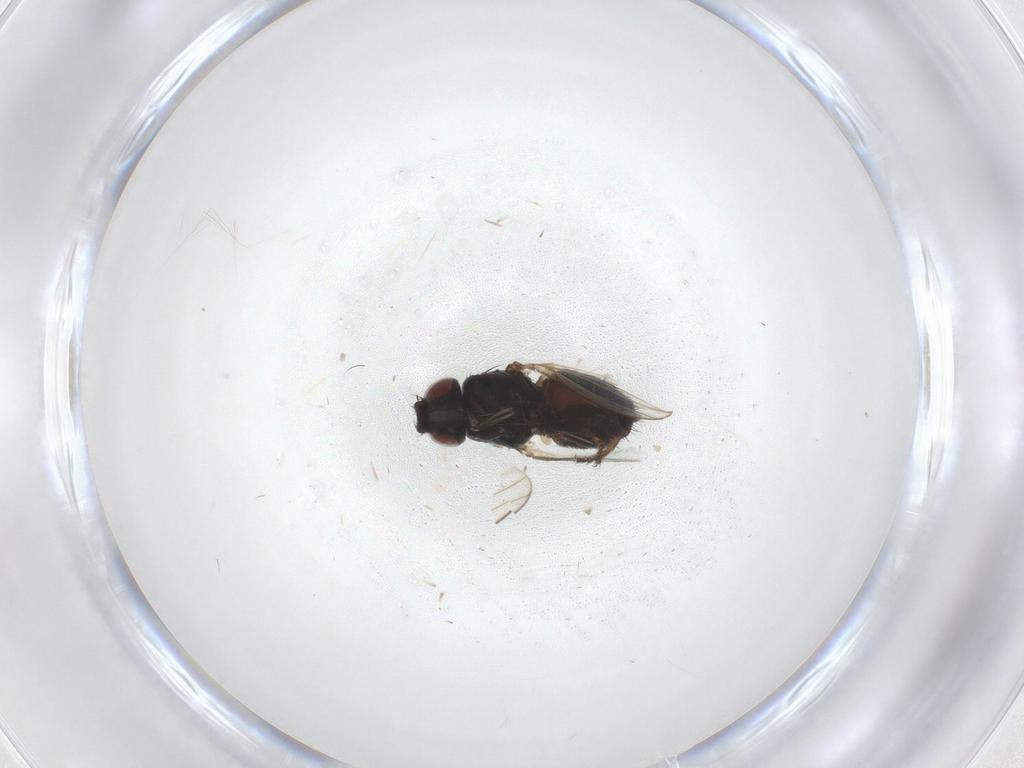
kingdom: Animalia
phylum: Arthropoda
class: Insecta
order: Diptera
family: Milichiidae
